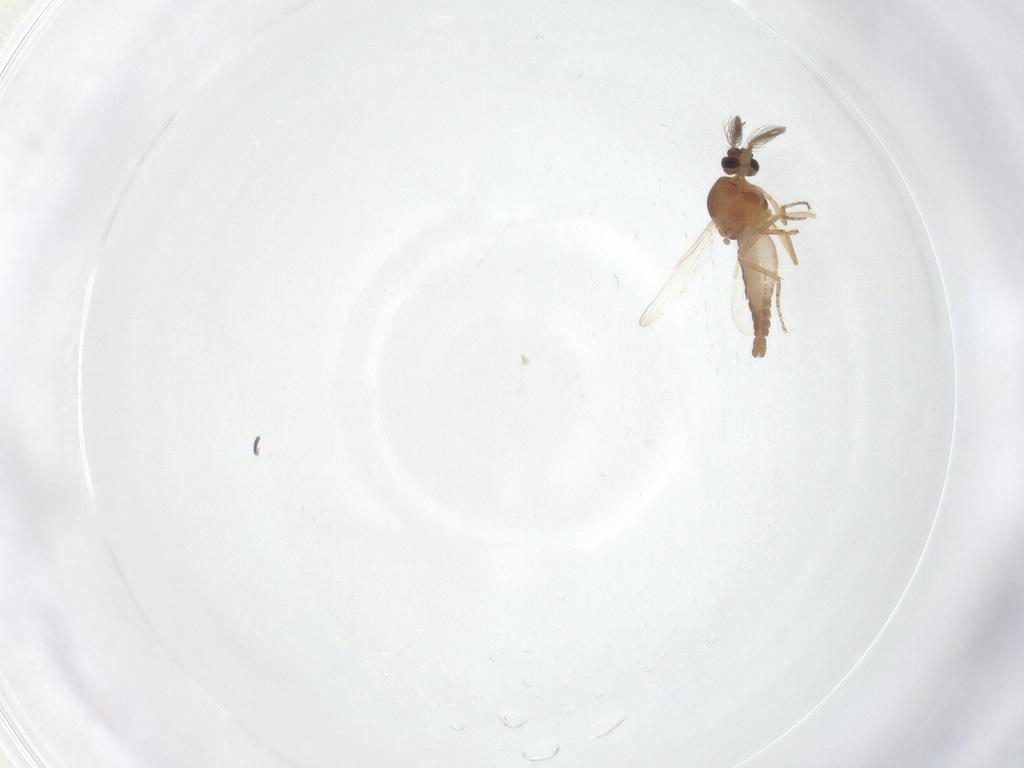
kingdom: Animalia
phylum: Arthropoda
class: Insecta
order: Diptera
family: Ceratopogonidae
